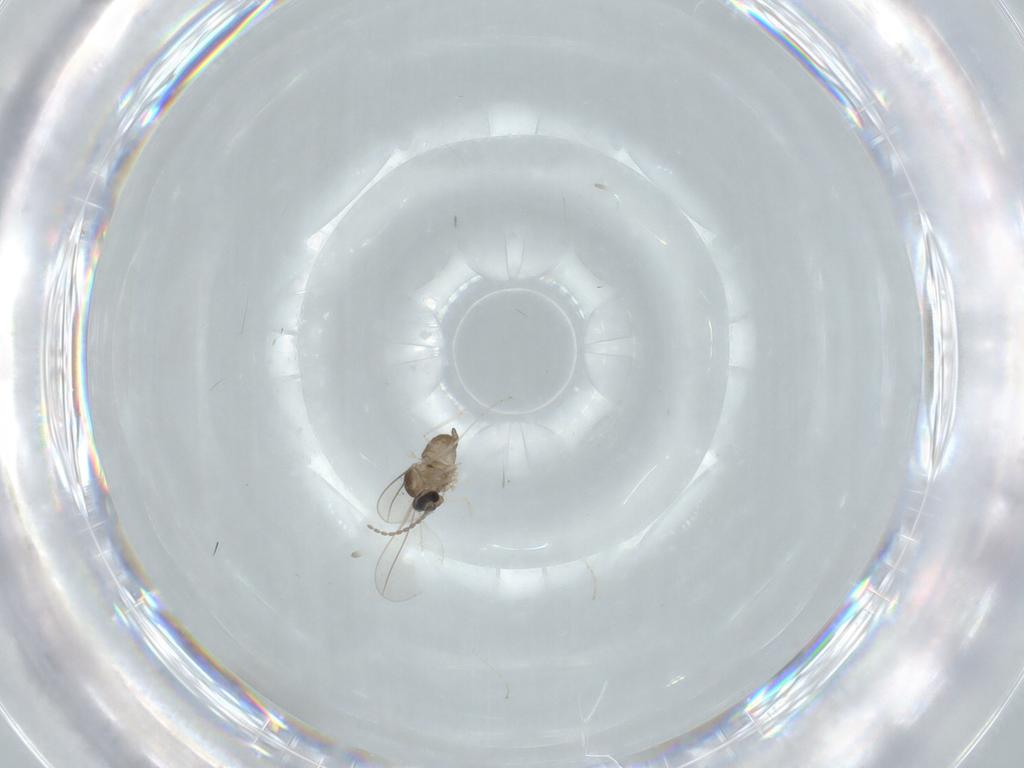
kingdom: Animalia
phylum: Arthropoda
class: Insecta
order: Diptera
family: Cecidomyiidae
